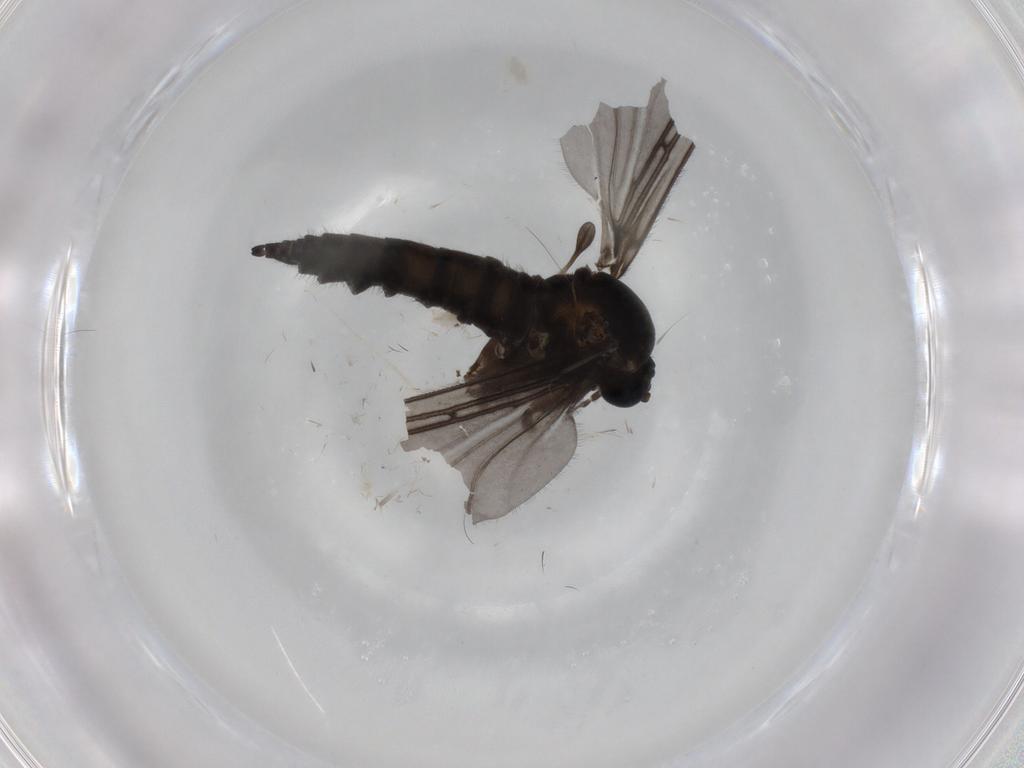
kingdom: Animalia
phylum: Arthropoda
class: Insecta
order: Diptera
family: Sciaridae
